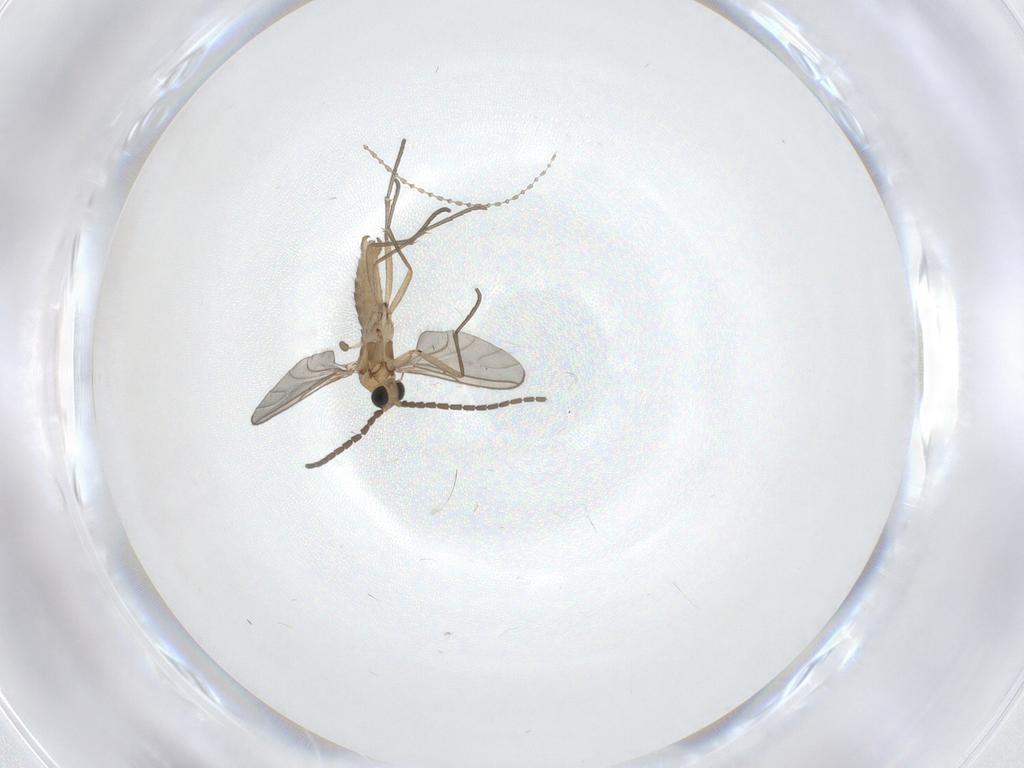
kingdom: Animalia
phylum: Arthropoda
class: Insecta
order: Diptera
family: Sciaridae
